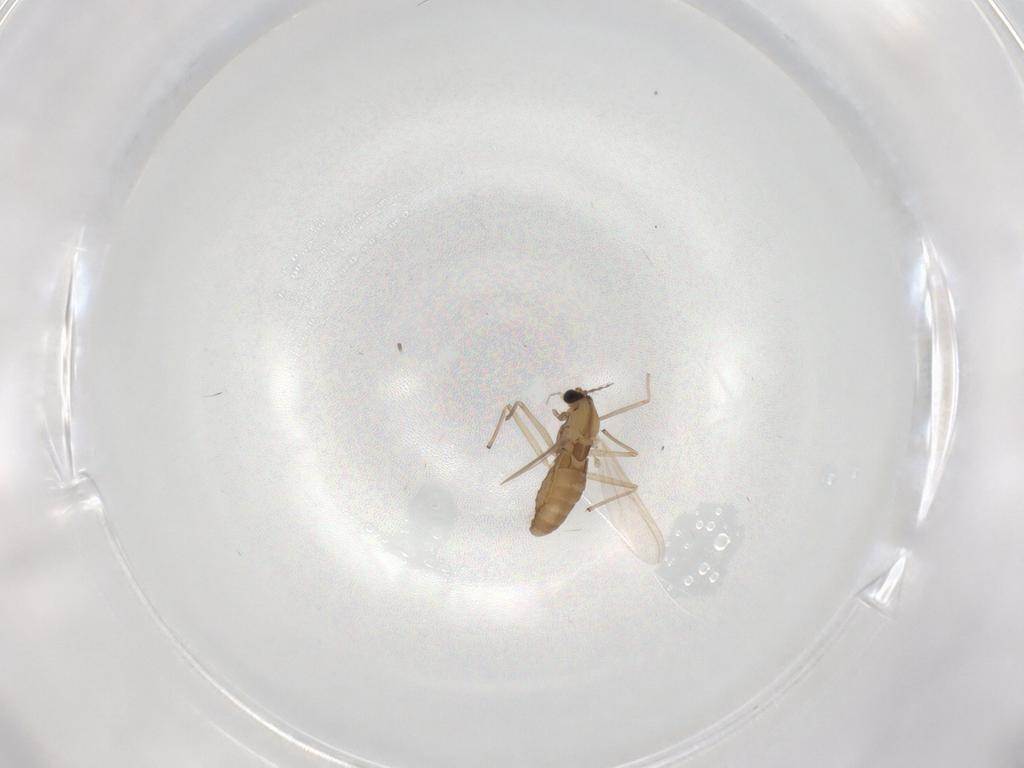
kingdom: Animalia
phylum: Arthropoda
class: Insecta
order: Diptera
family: Chironomidae
